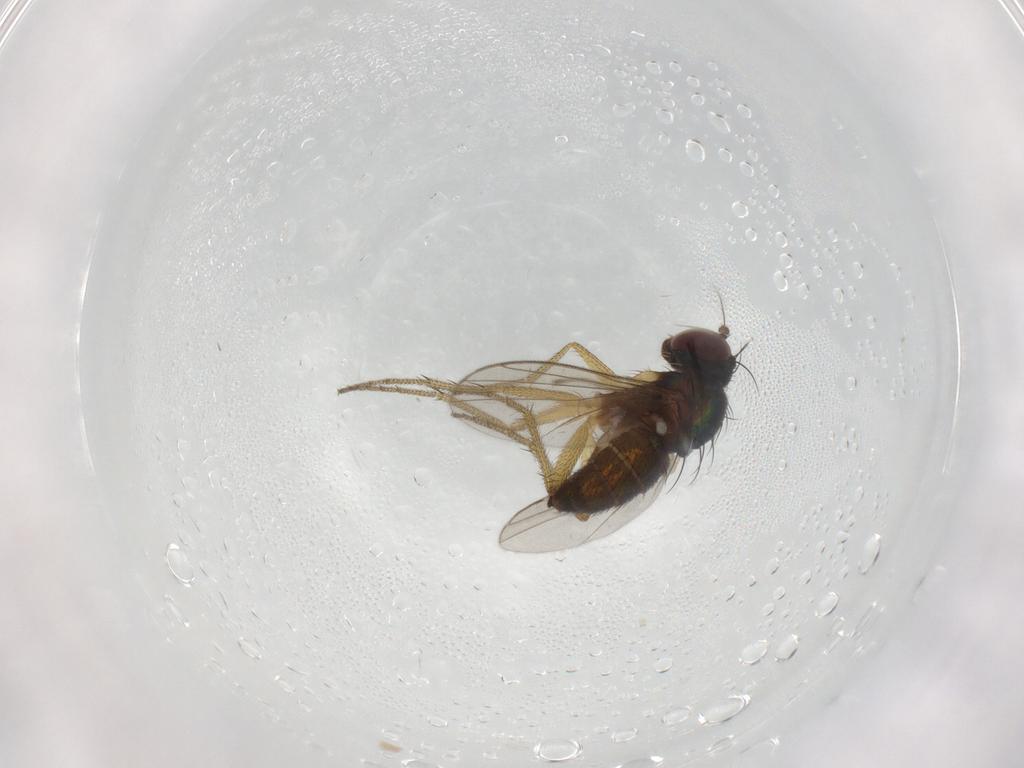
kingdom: Animalia
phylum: Arthropoda
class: Insecta
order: Diptera
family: Dolichopodidae
